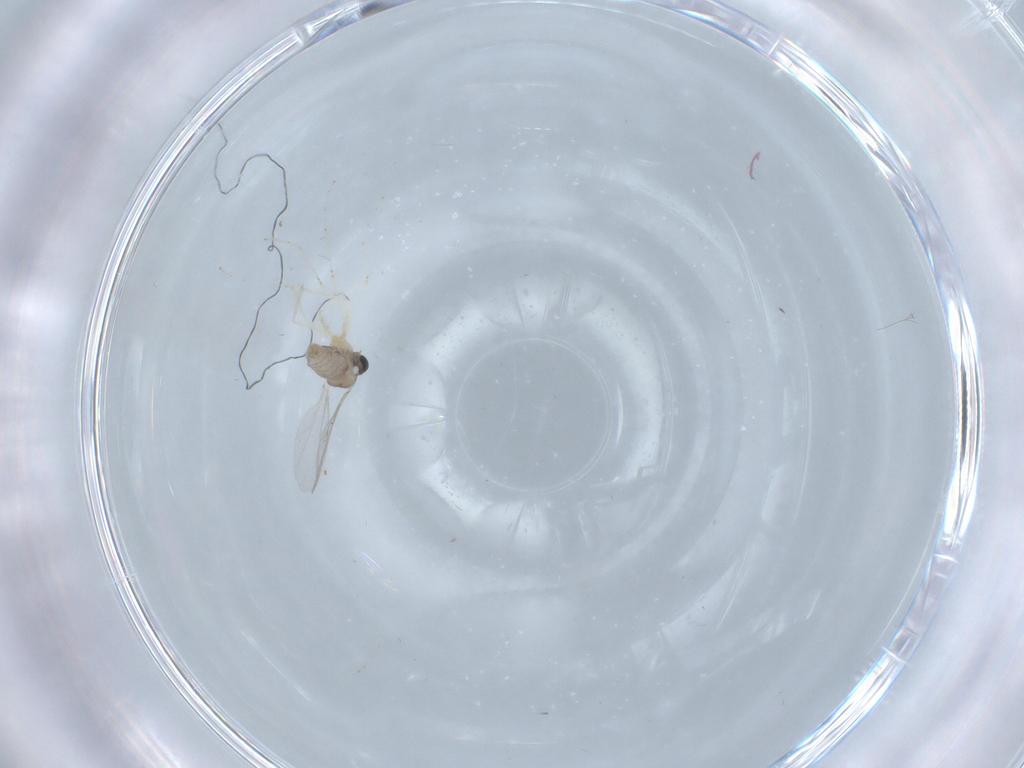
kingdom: Animalia
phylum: Arthropoda
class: Insecta
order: Diptera
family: Cecidomyiidae
